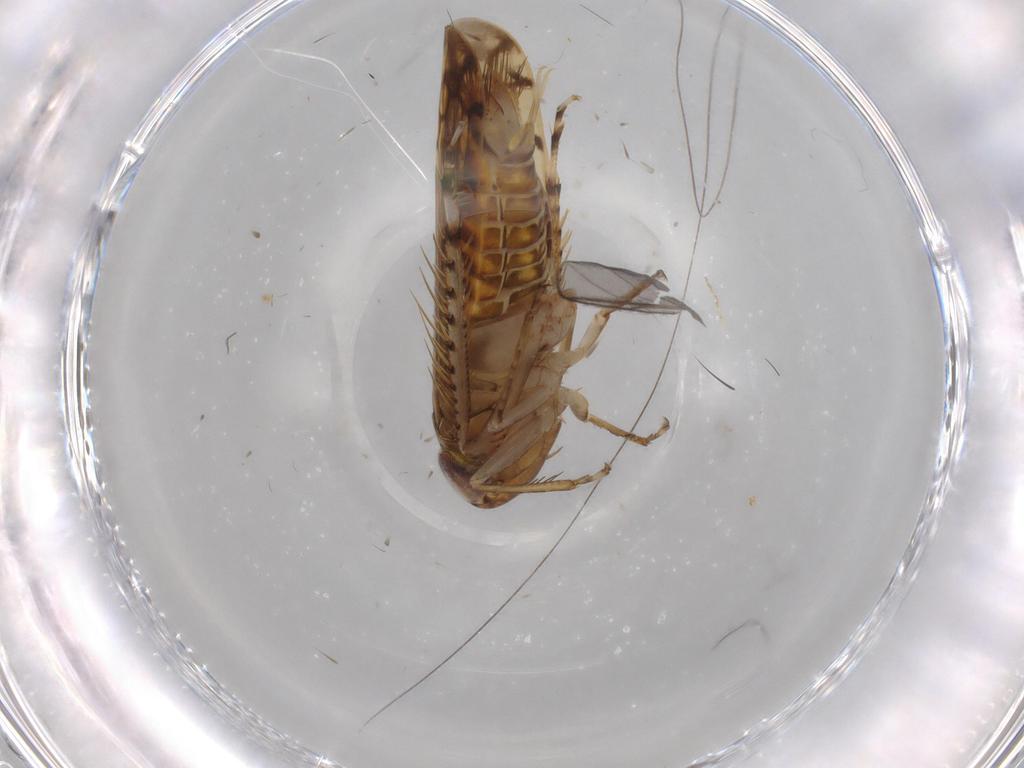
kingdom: Animalia
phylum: Arthropoda
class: Insecta
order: Hemiptera
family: Cicadellidae
